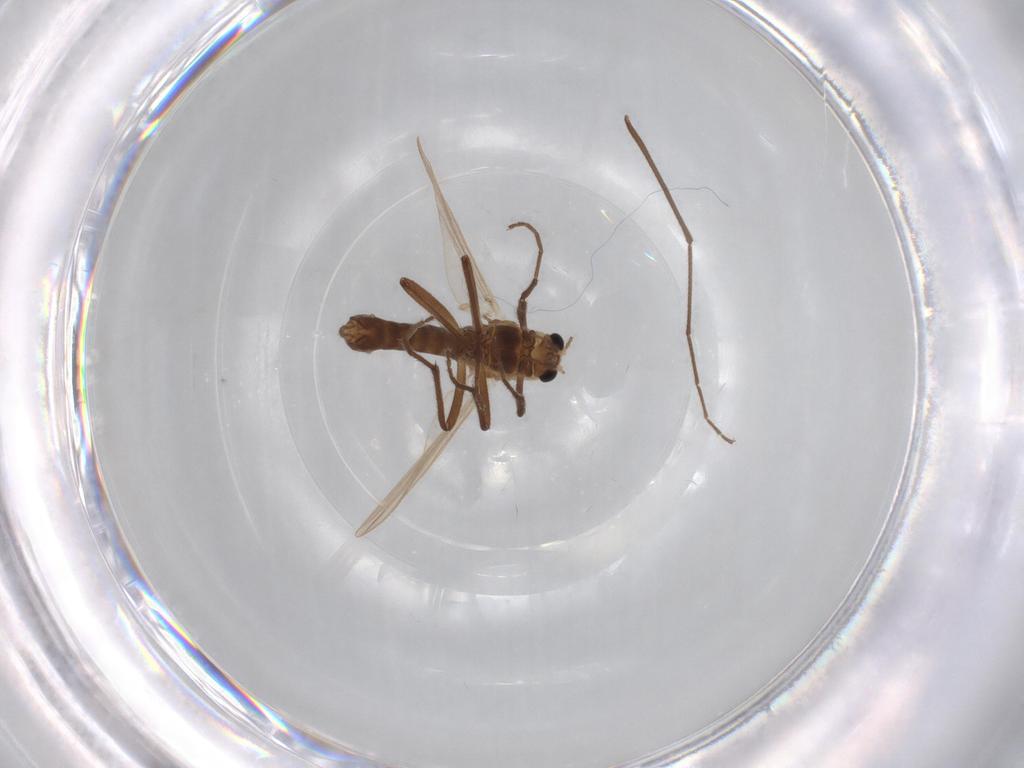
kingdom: Animalia
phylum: Arthropoda
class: Insecta
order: Diptera
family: Chironomidae
